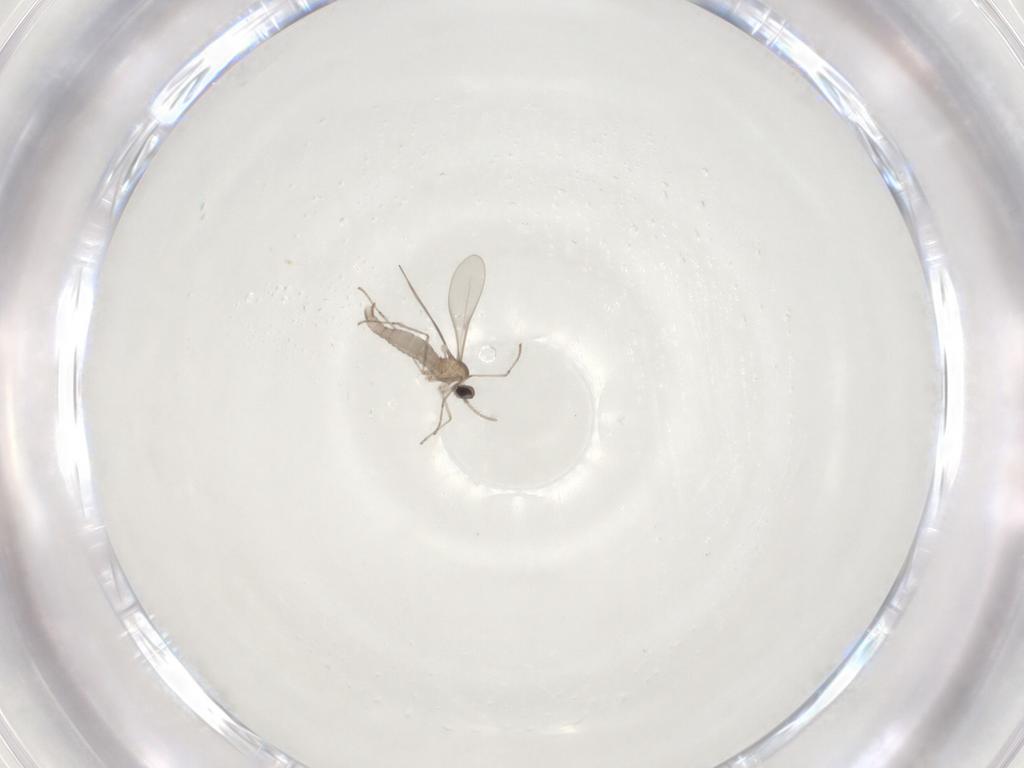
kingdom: Animalia
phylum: Arthropoda
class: Insecta
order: Diptera
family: Cecidomyiidae
